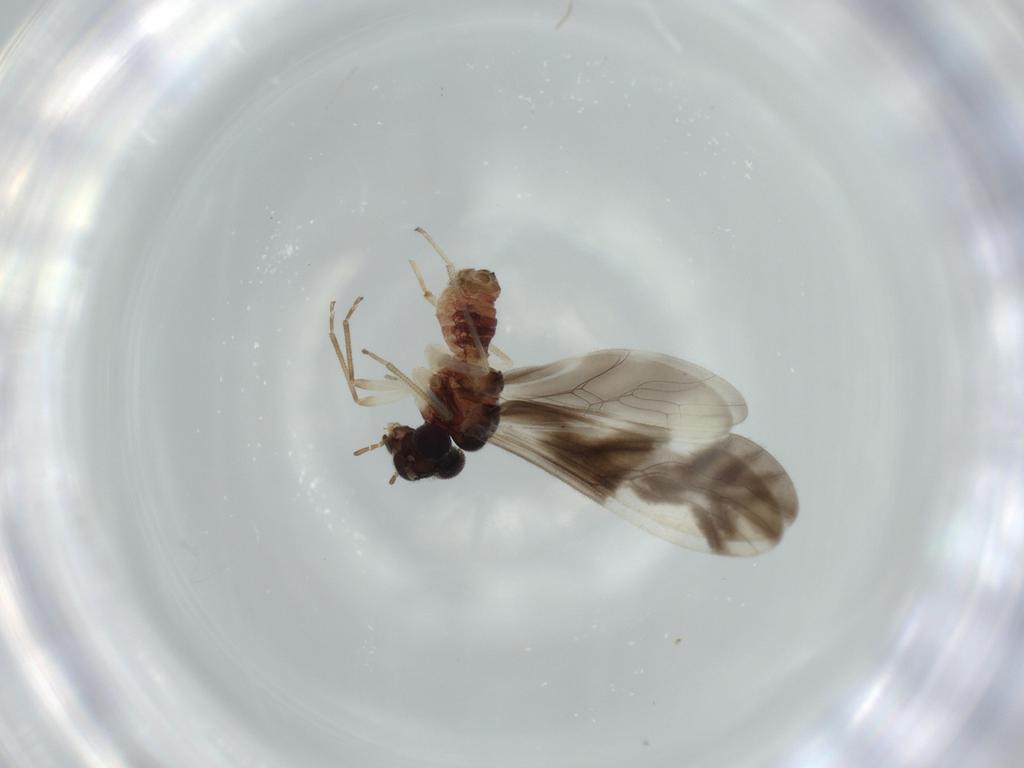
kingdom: Animalia
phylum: Arthropoda
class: Insecta
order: Psocodea
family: Caeciliusidae
